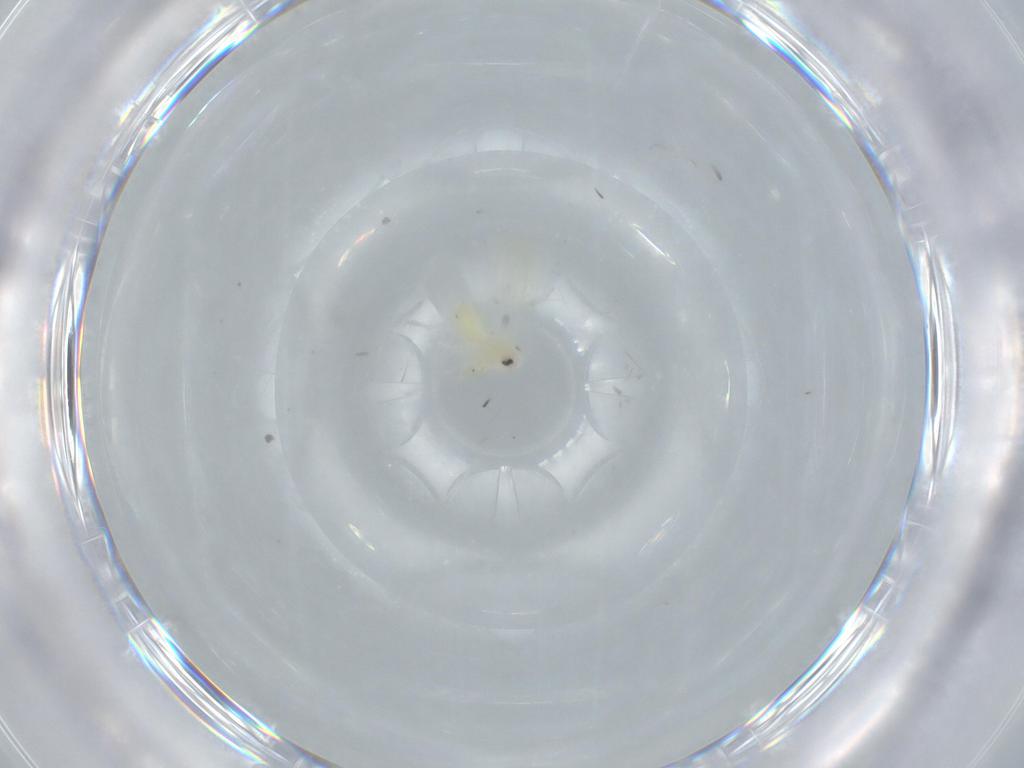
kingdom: Animalia
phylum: Arthropoda
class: Insecta
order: Hemiptera
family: Aleyrodidae
